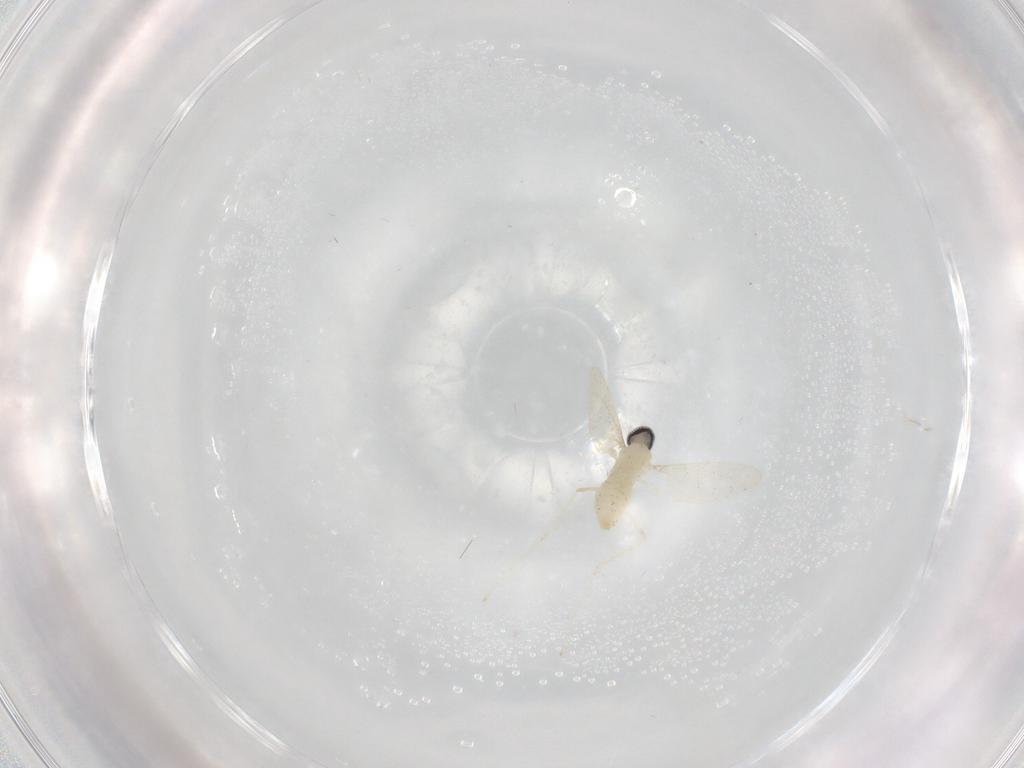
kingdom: Animalia
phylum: Arthropoda
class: Insecta
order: Diptera
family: Cecidomyiidae
